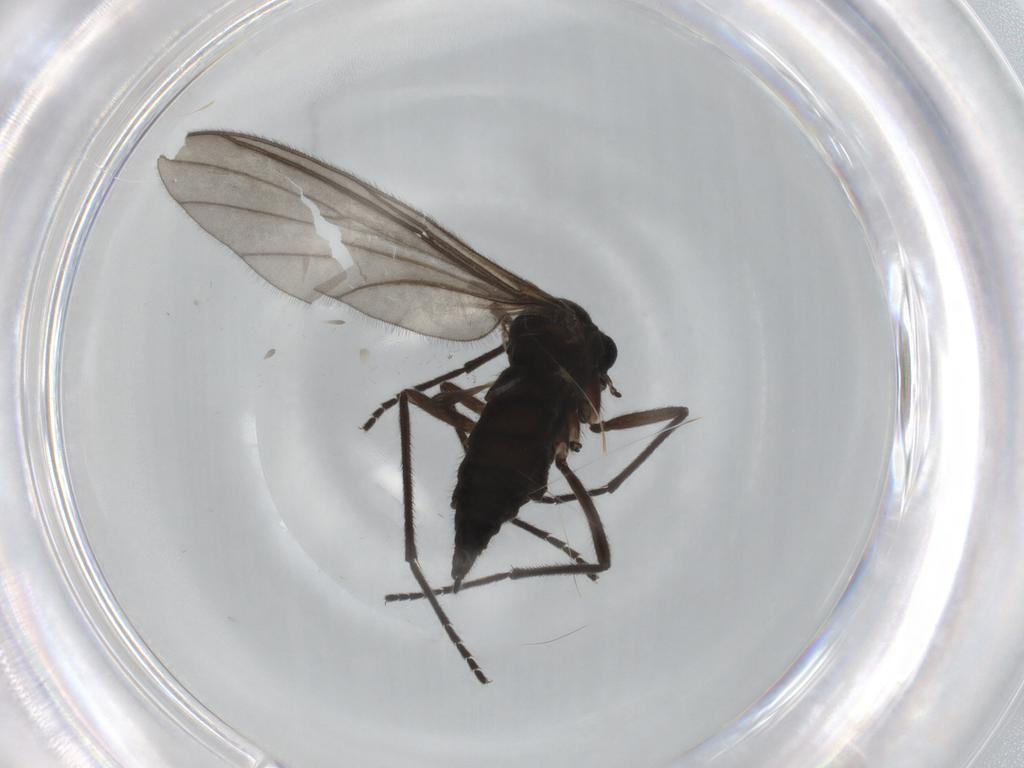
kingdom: Animalia
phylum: Arthropoda
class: Insecta
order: Diptera
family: Sciaridae
